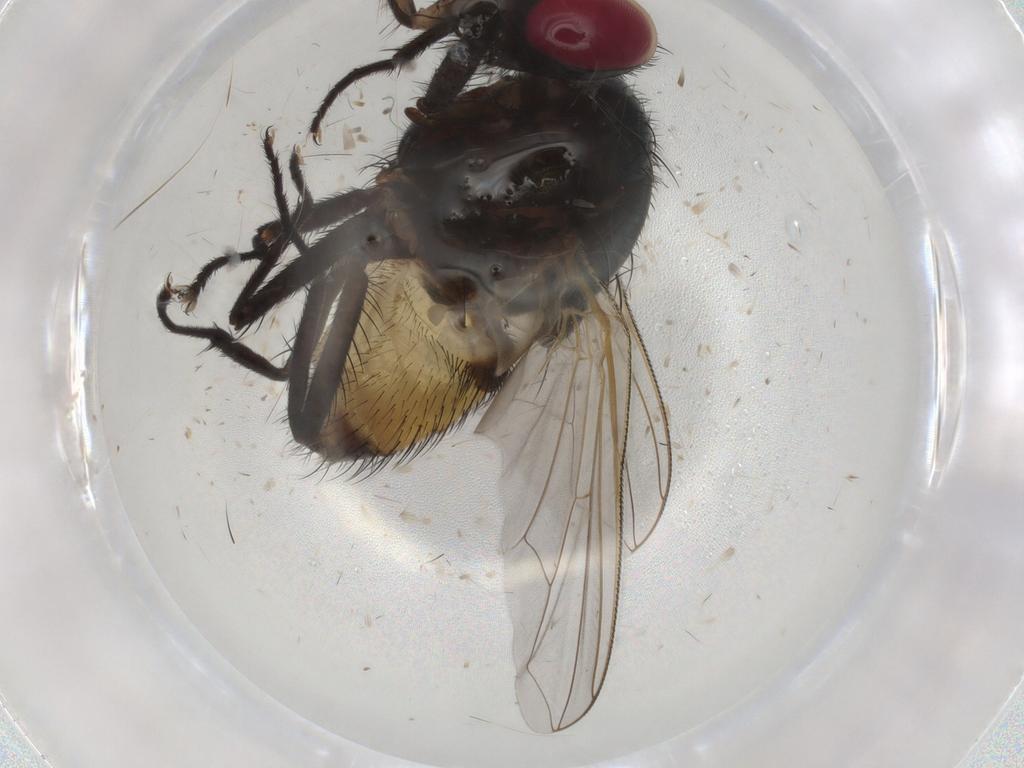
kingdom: Animalia
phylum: Arthropoda
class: Insecta
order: Diptera
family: Muscidae
